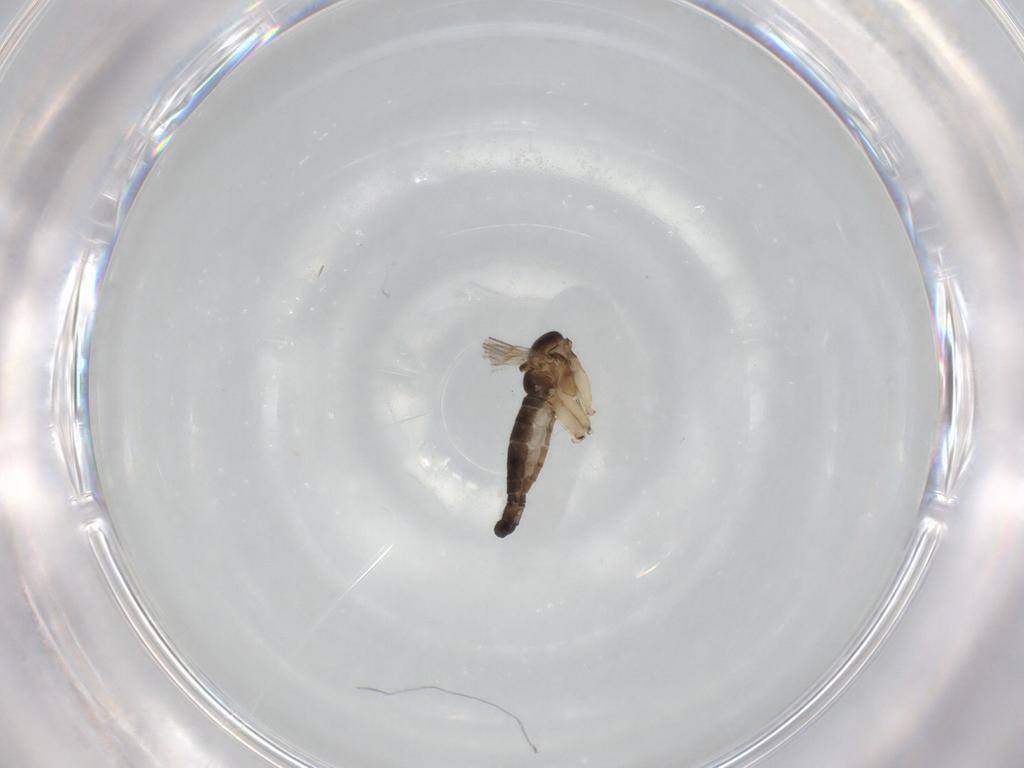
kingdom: Animalia
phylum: Arthropoda
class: Insecta
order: Diptera
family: Sciaridae
